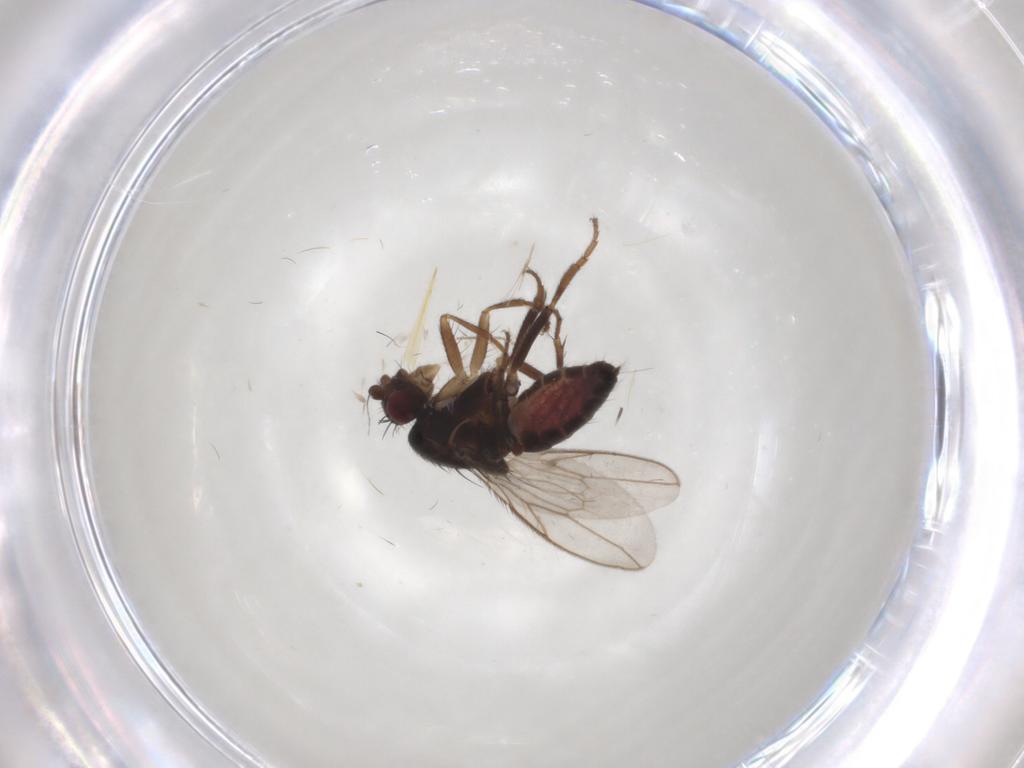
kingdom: Animalia
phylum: Arthropoda
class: Insecta
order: Diptera
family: Sphaeroceridae
